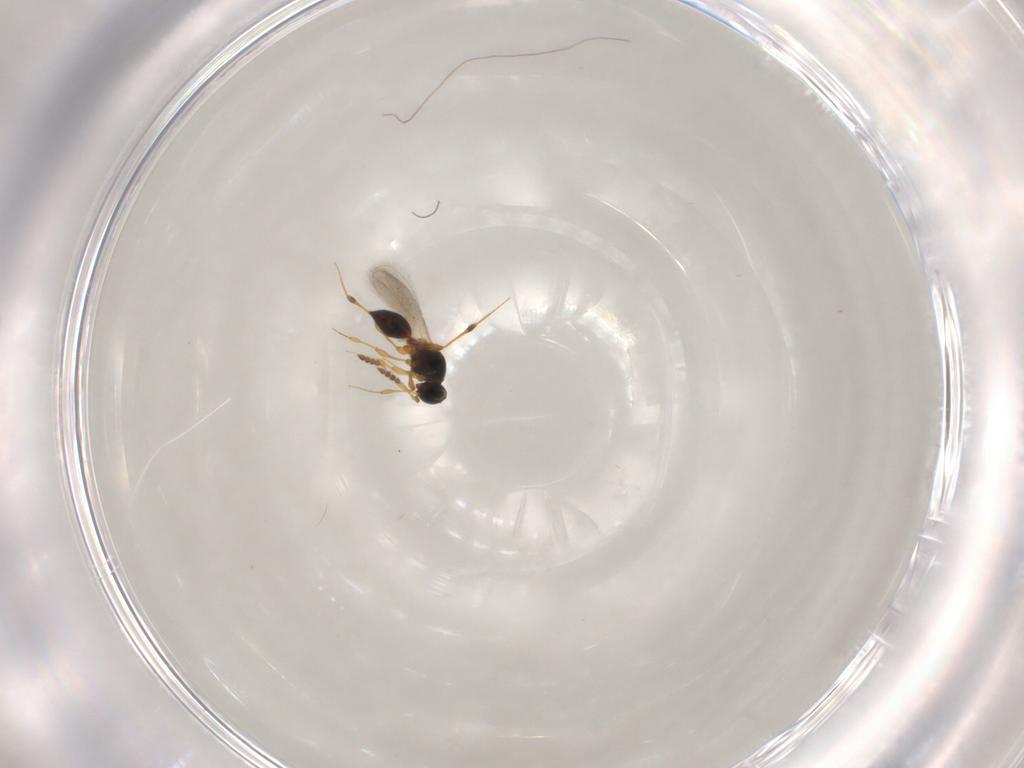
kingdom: Animalia
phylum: Arthropoda
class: Insecta
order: Hymenoptera
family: Platygastridae
